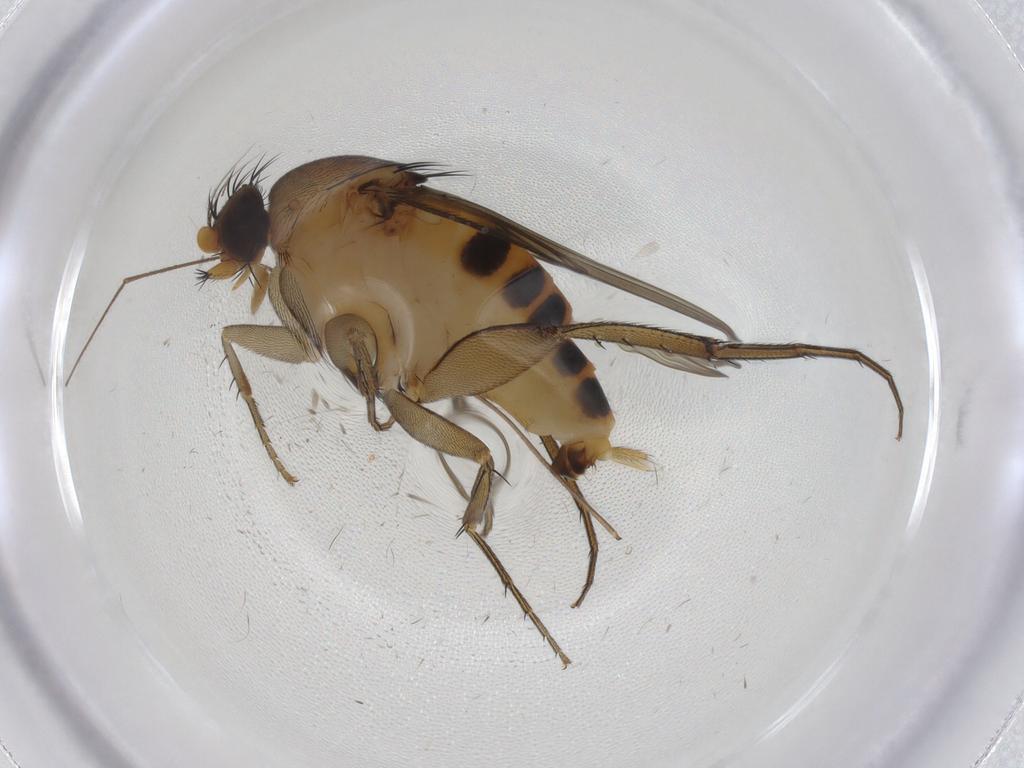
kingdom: Animalia
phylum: Arthropoda
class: Insecta
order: Diptera
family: Phoridae
